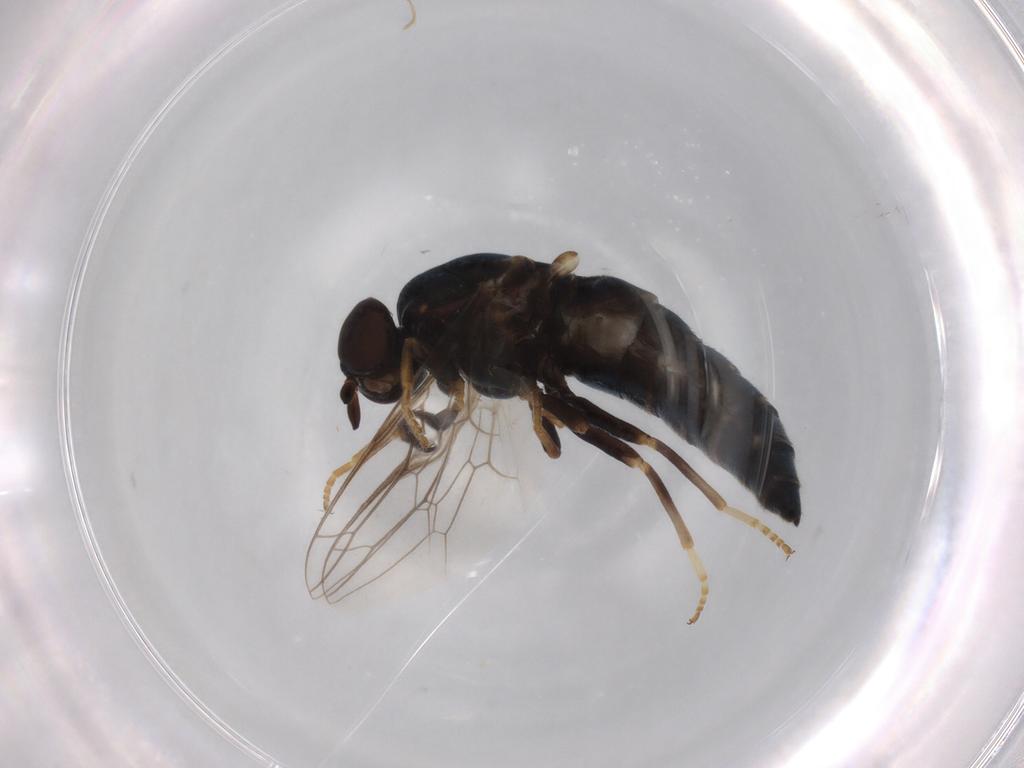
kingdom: Animalia
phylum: Arthropoda
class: Insecta
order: Diptera
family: Scenopinidae
